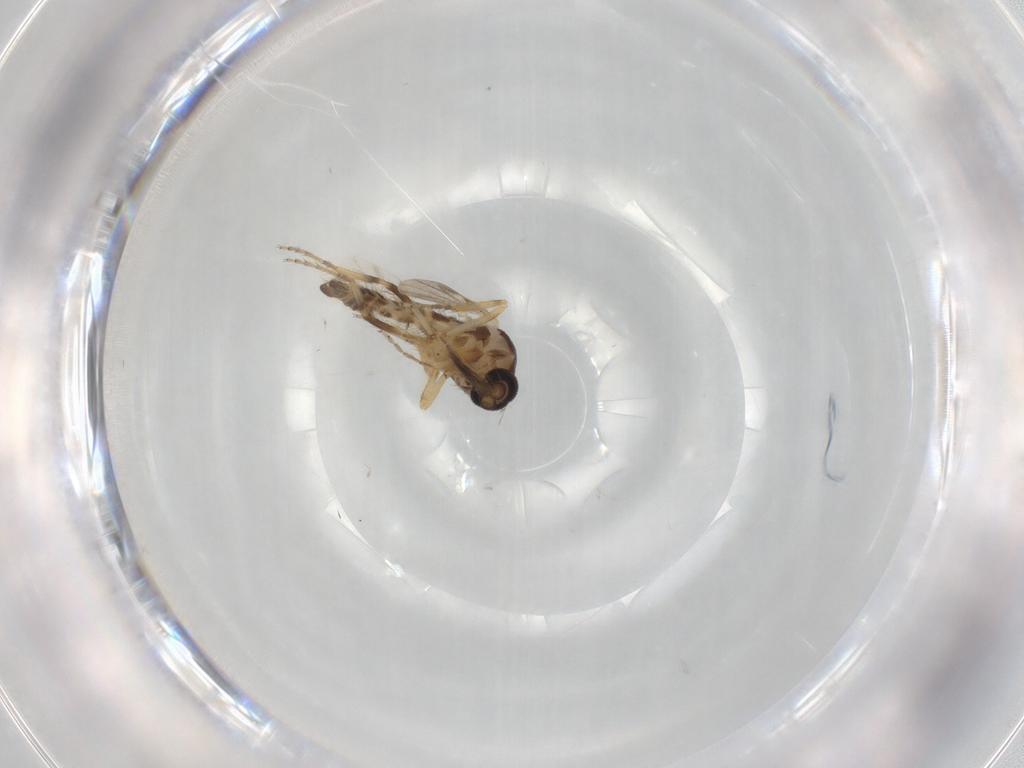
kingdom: Animalia
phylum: Arthropoda
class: Insecta
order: Diptera
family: Ceratopogonidae
